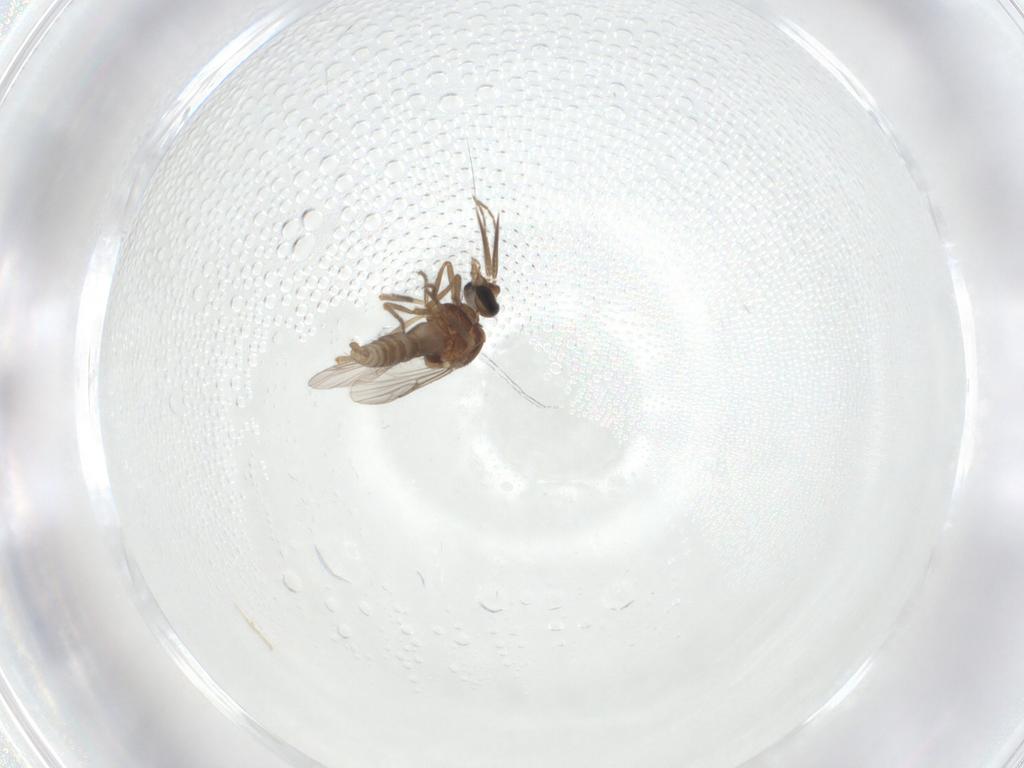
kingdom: Animalia
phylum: Arthropoda
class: Insecta
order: Diptera
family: Ceratopogonidae
